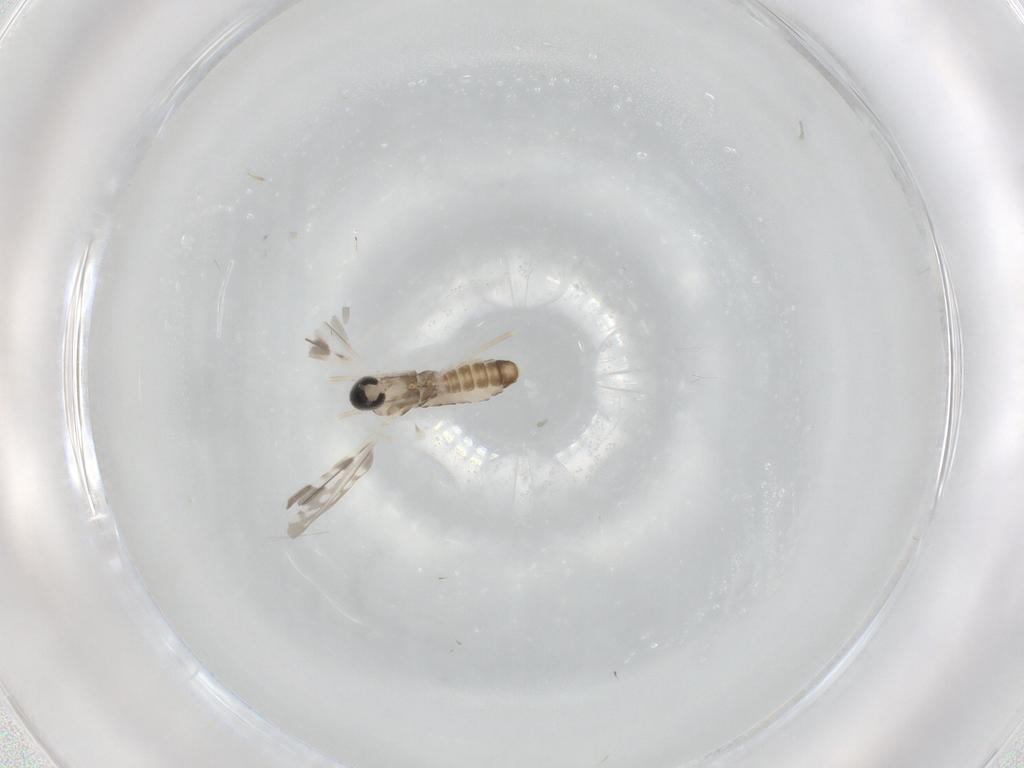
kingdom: Animalia
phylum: Arthropoda
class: Insecta
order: Diptera
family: Cecidomyiidae
